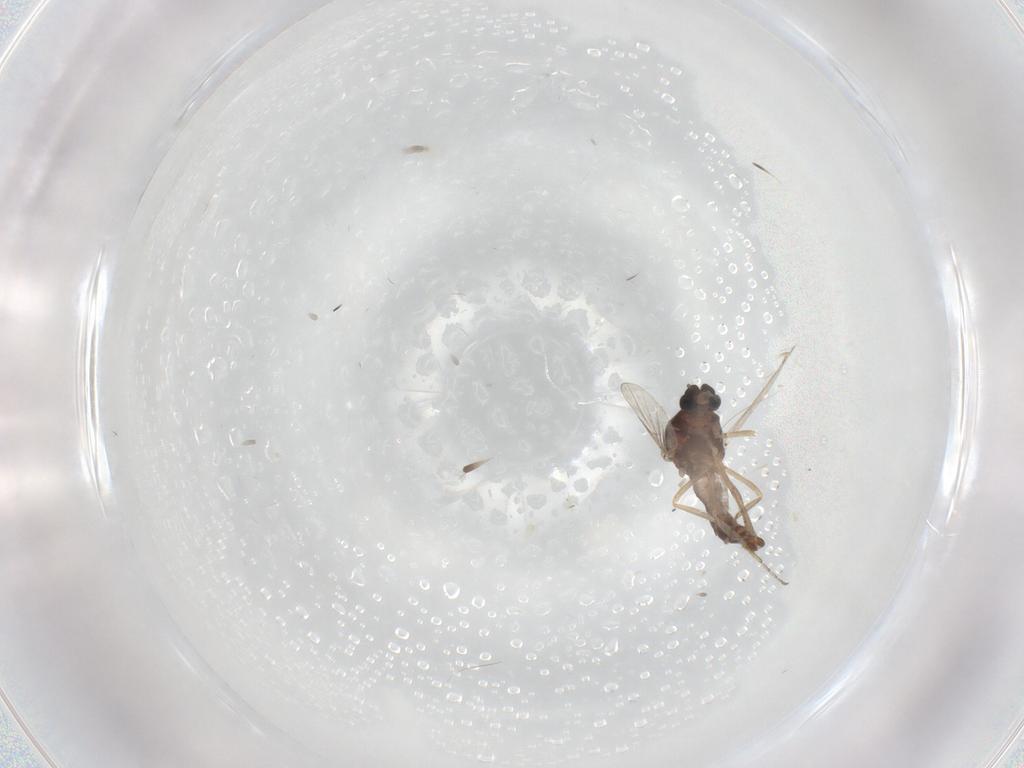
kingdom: Animalia
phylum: Arthropoda
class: Insecta
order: Diptera
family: Ceratopogonidae
